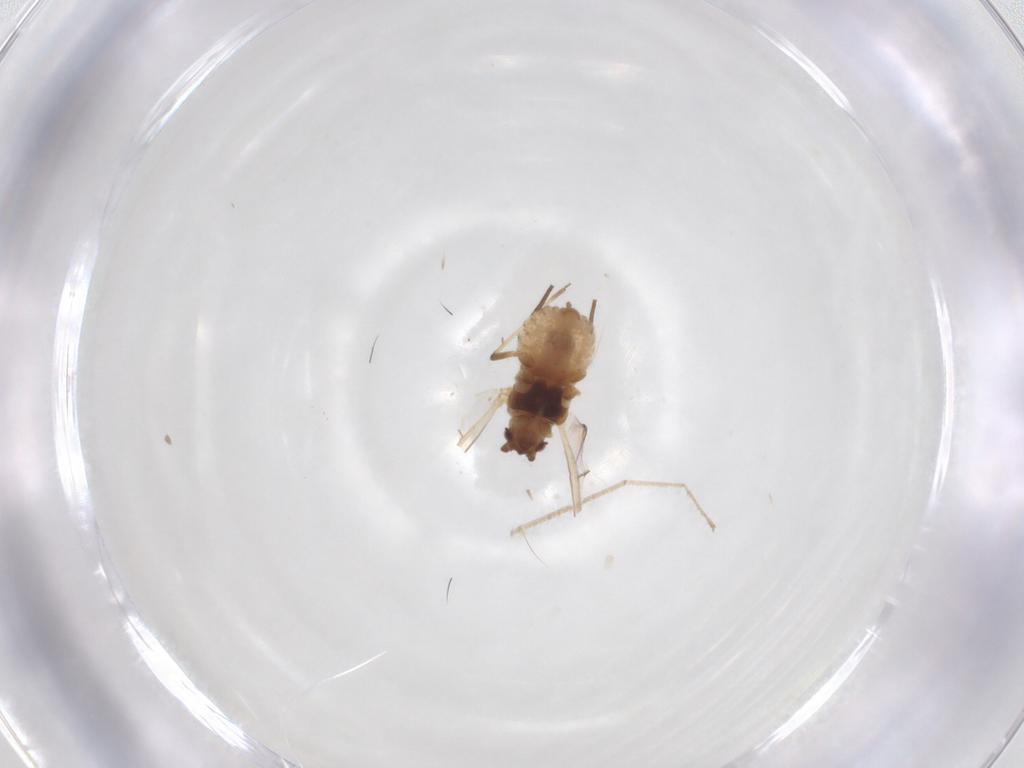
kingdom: Animalia
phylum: Arthropoda
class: Insecta
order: Hemiptera
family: Aphididae
